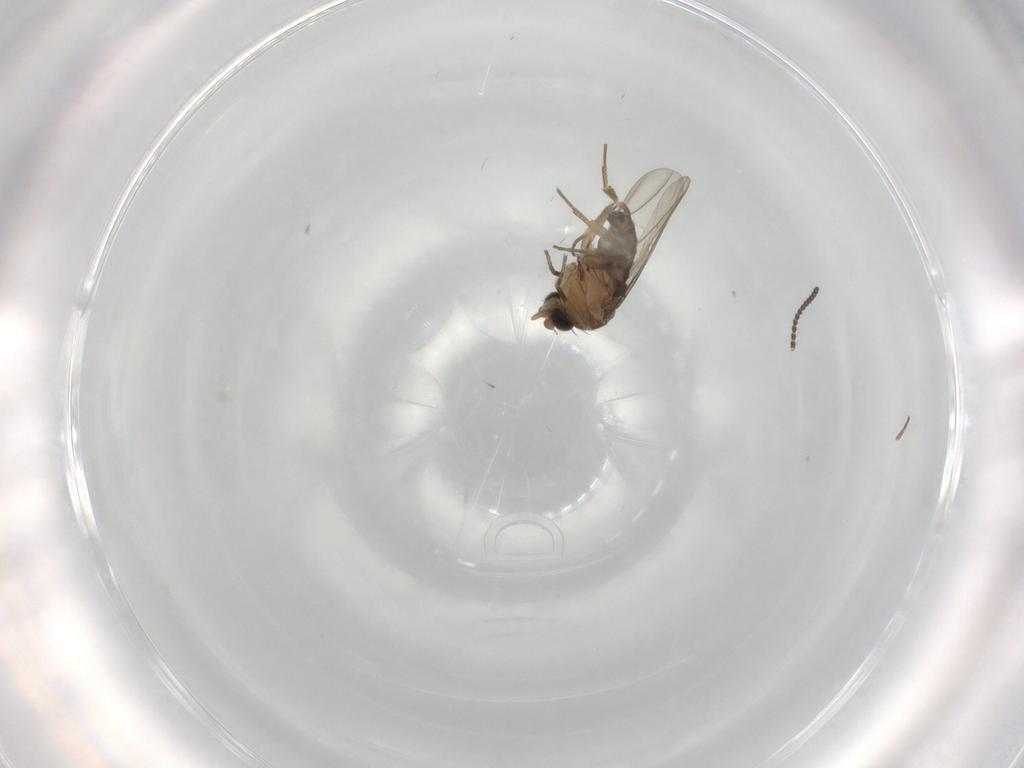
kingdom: Animalia
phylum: Arthropoda
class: Insecta
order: Diptera
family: Phoridae
